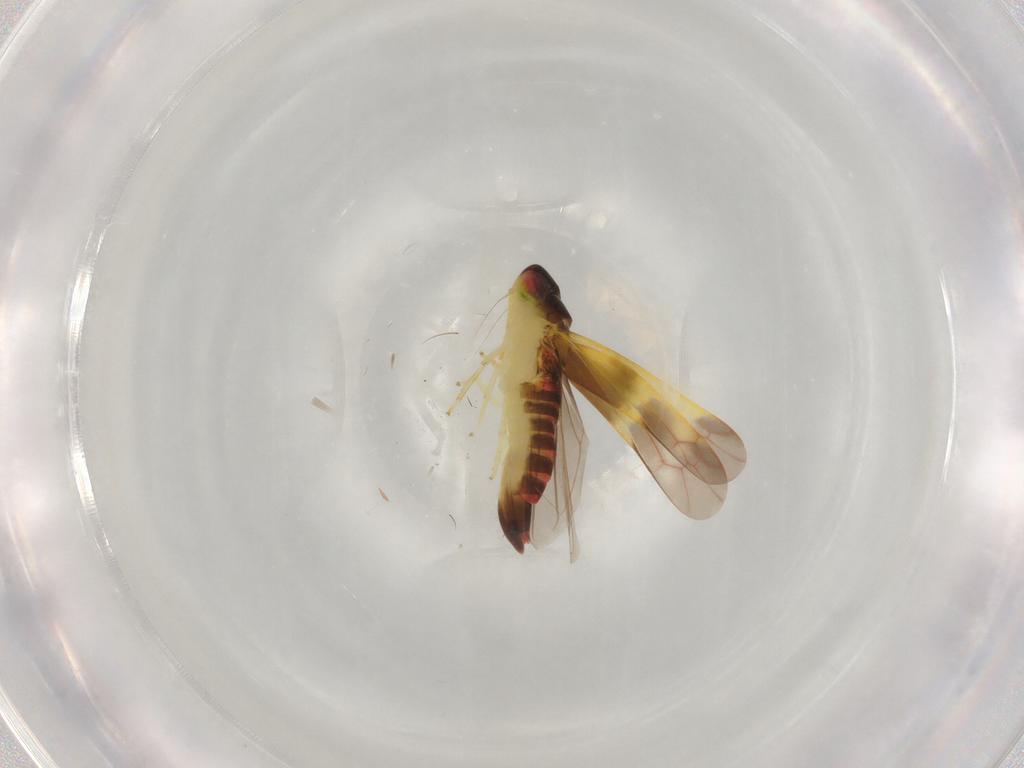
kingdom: Animalia
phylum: Arthropoda
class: Insecta
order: Hemiptera
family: Cicadellidae
